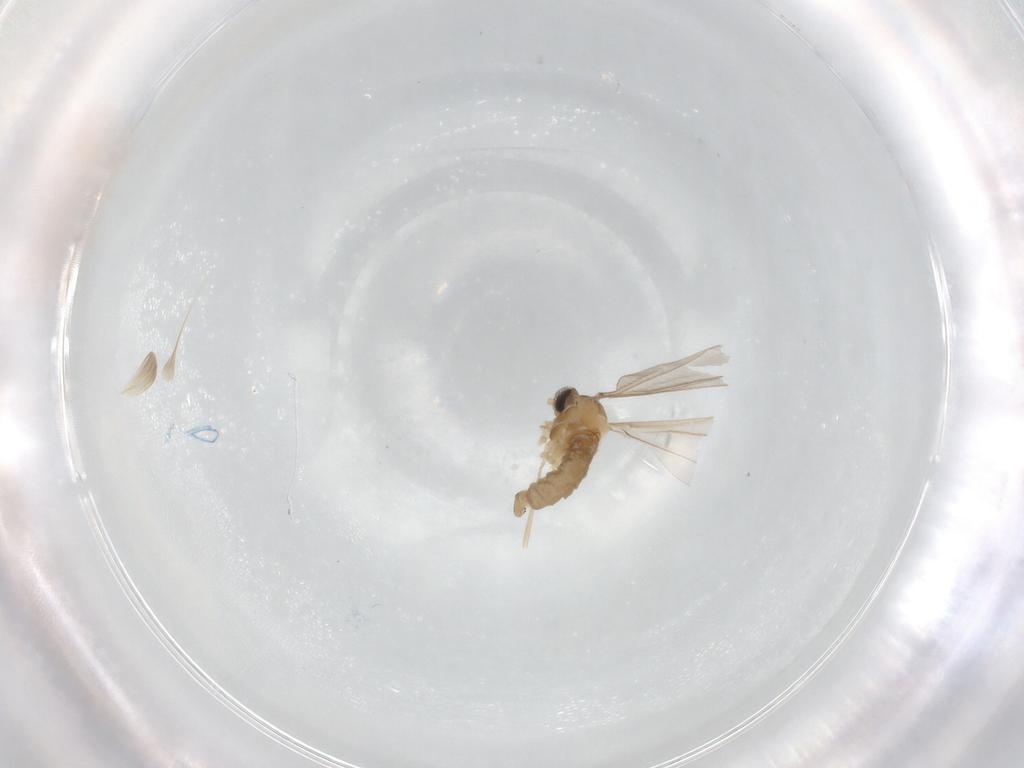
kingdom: Animalia
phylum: Arthropoda
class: Insecta
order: Diptera
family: Cecidomyiidae
